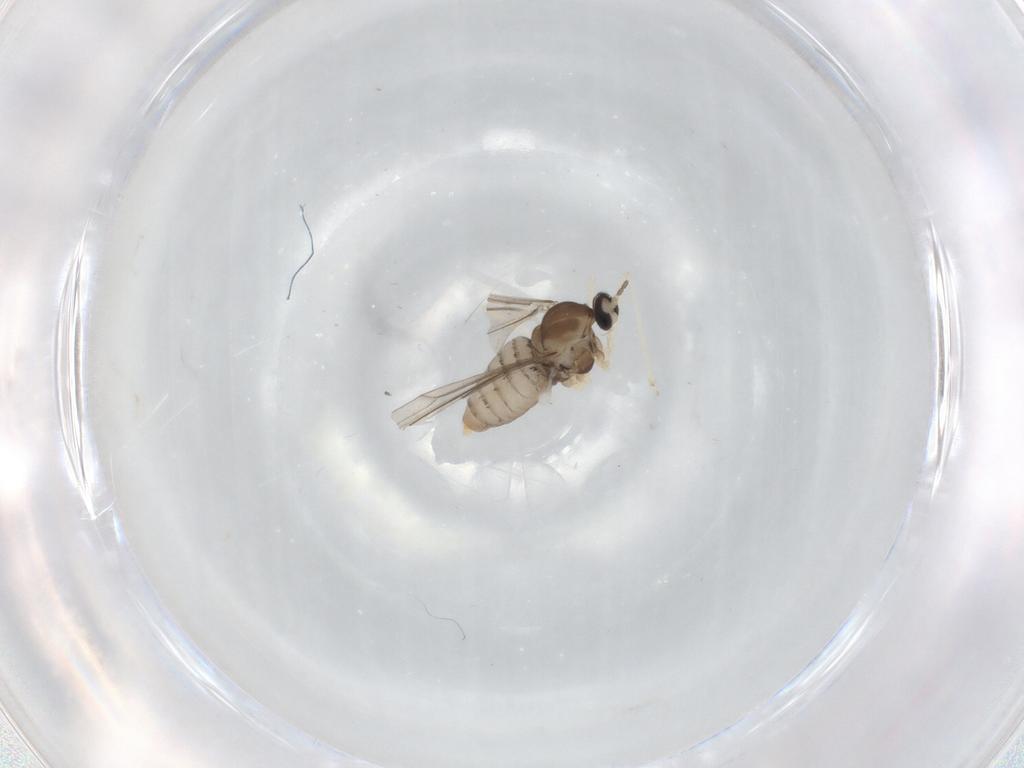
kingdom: Animalia
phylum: Arthropoda
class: Insecta
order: Diptera
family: Cecidomyiidae
